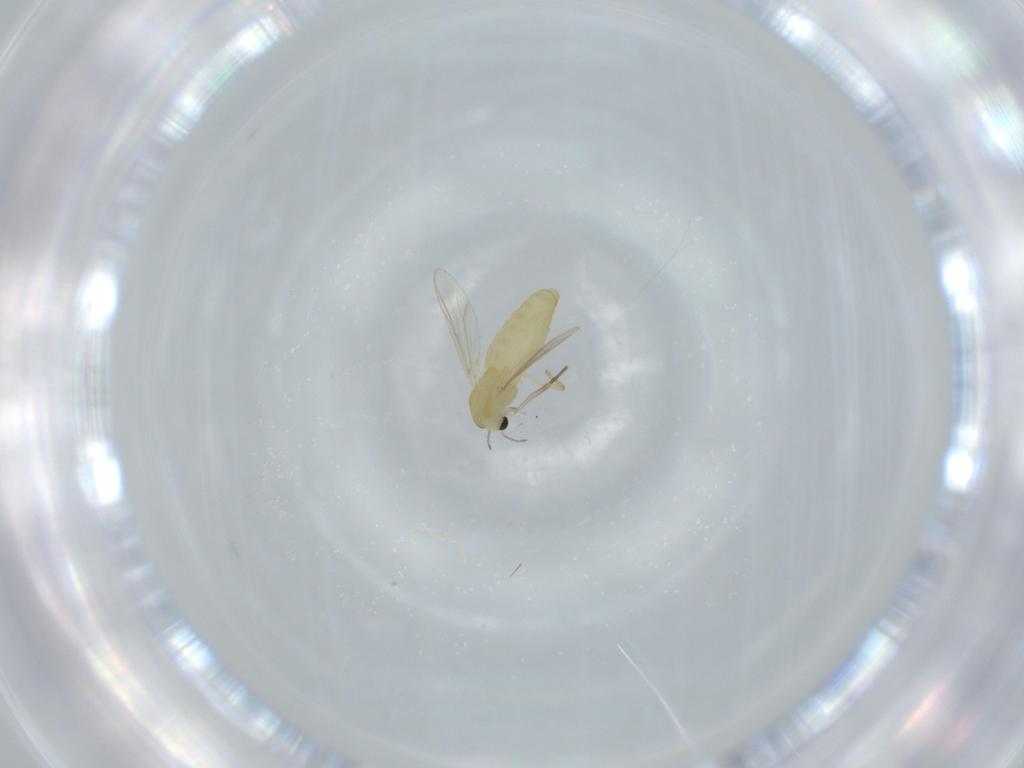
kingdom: Animalia
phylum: Arthropoda
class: Insecta
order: Diptera
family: Chironomidae
